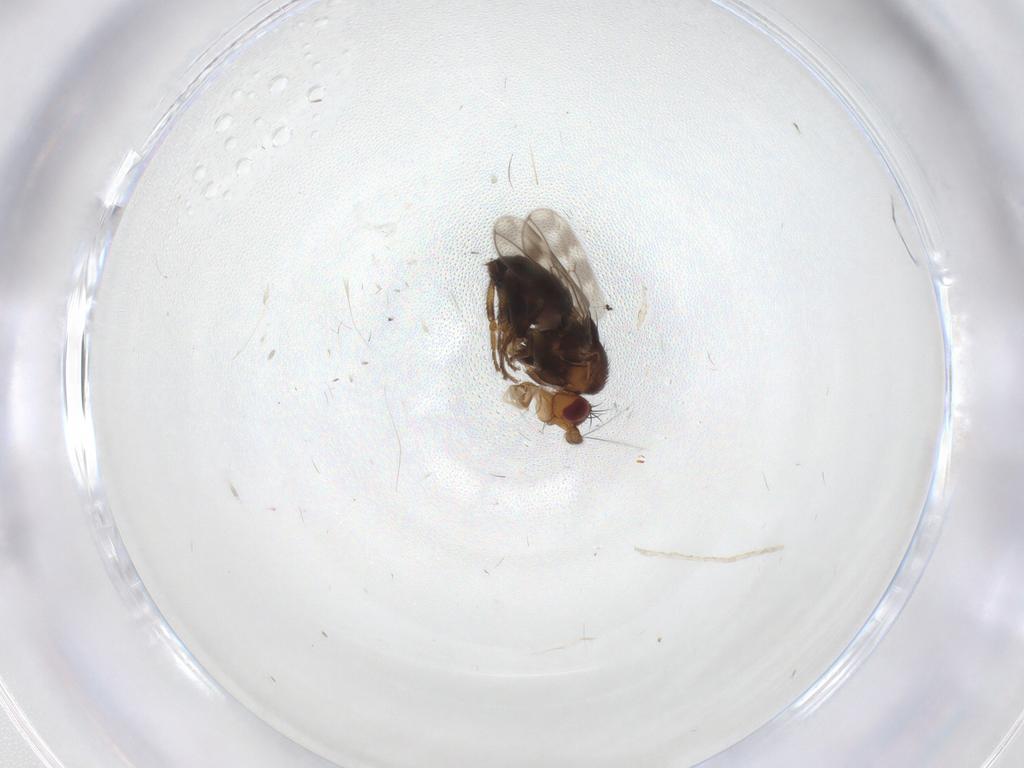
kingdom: Animalia
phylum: Arthropoda
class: Insecta
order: Diptera
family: Sphaeroceridae
